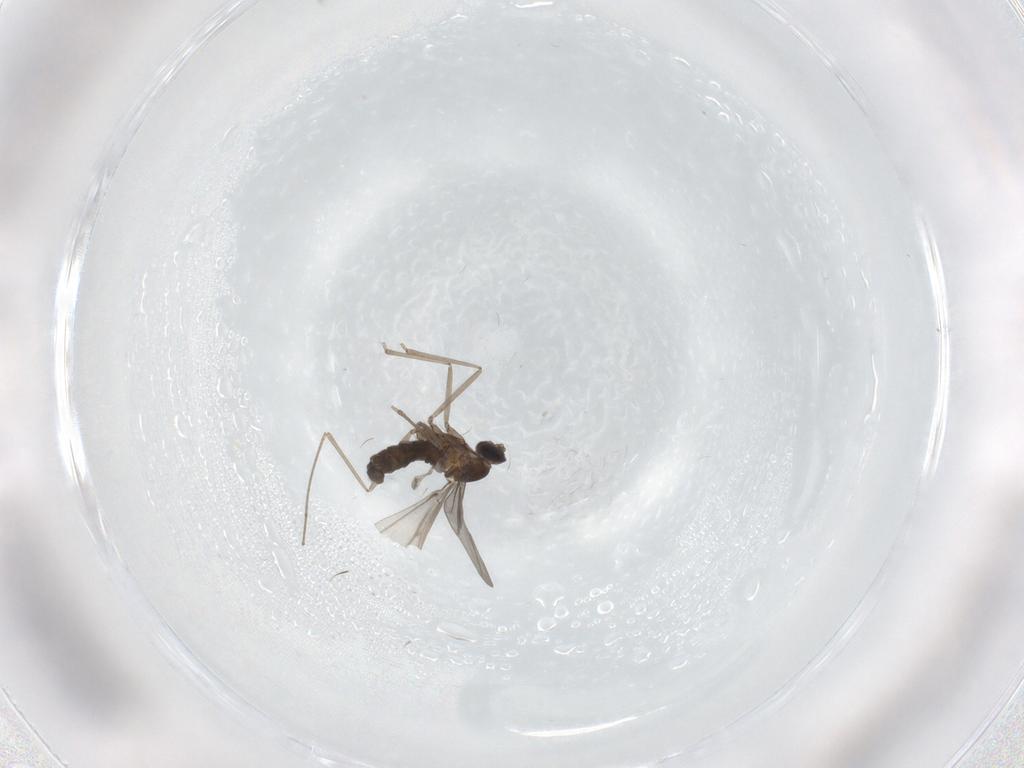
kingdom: Animalia
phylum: Arthropoda
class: Insecta
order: Diptera
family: Cecidomyiidae
